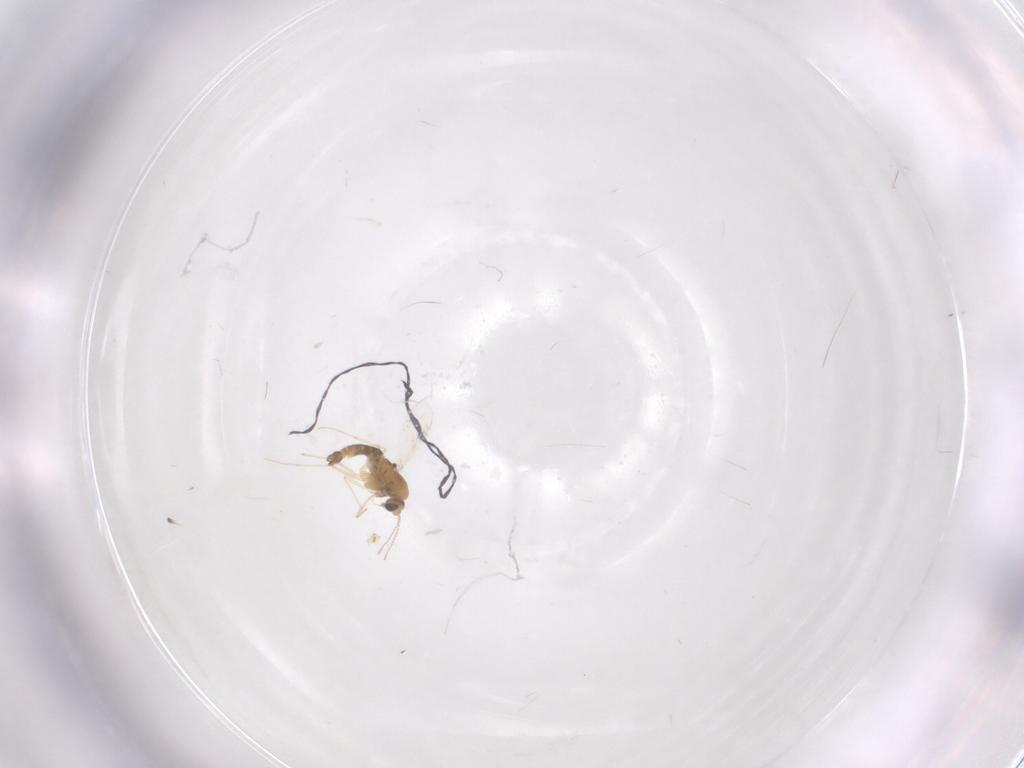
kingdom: Animalia
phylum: Arthropoda
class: Insecta
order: Diptera
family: Chironomidae
